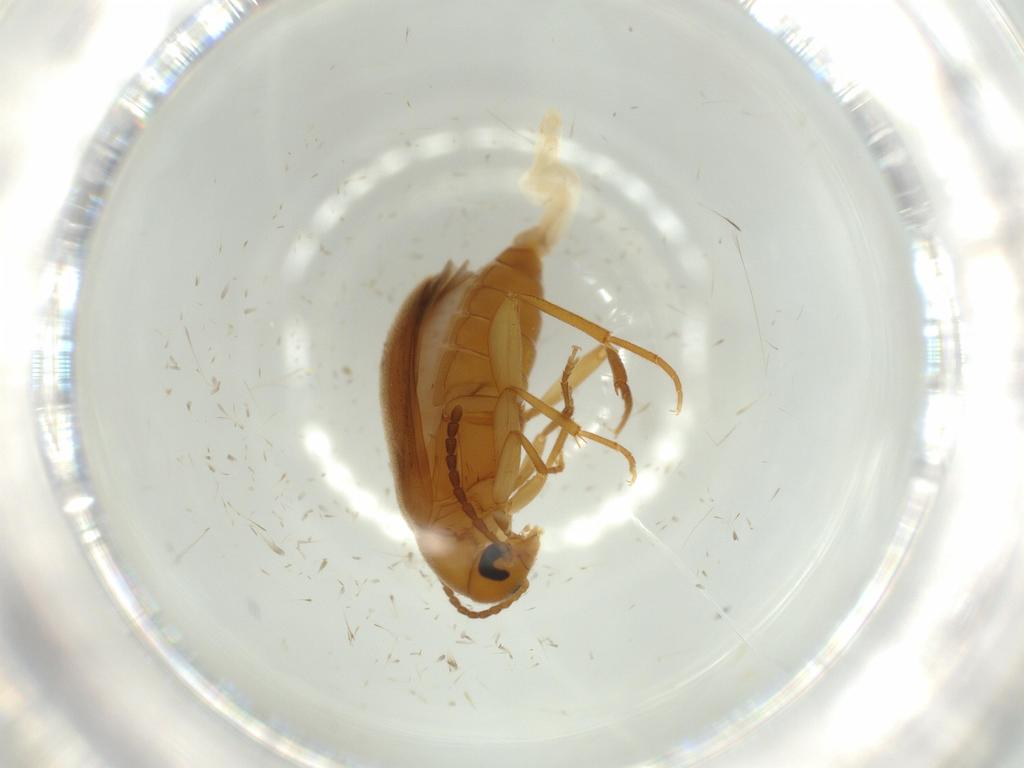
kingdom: Animalia
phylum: Arthropoda
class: Insecta
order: Coleoptera
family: Scraptiidae
